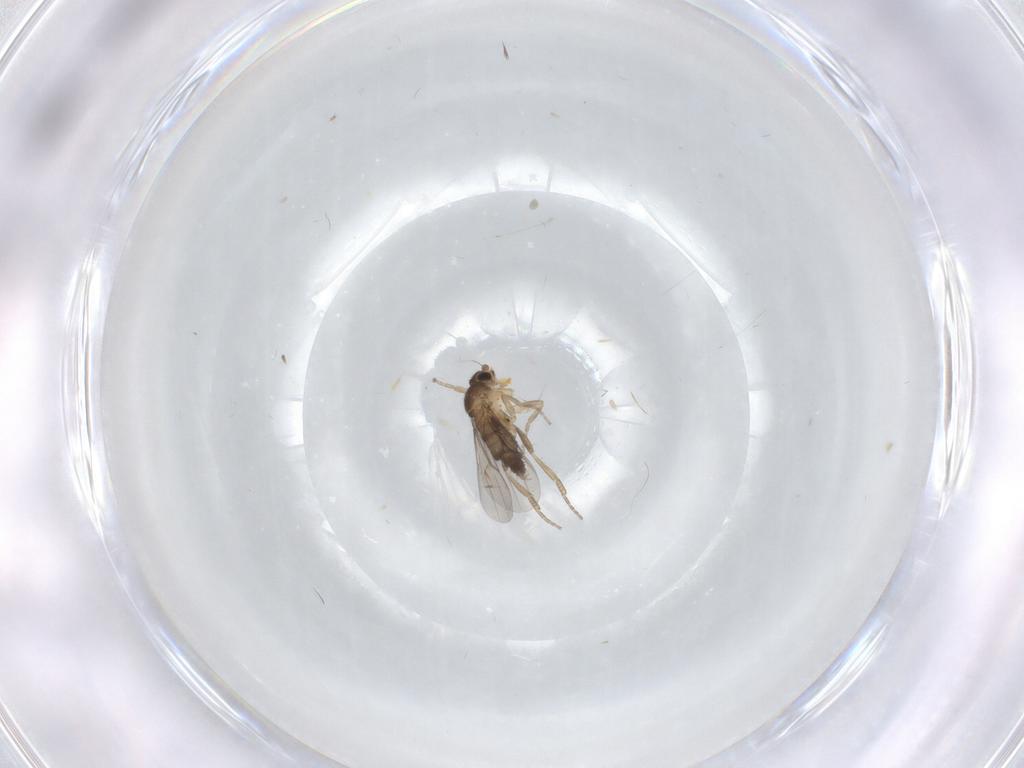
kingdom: Animalia
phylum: Arthropoda
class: Insecta
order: Diptera
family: Phoridae
